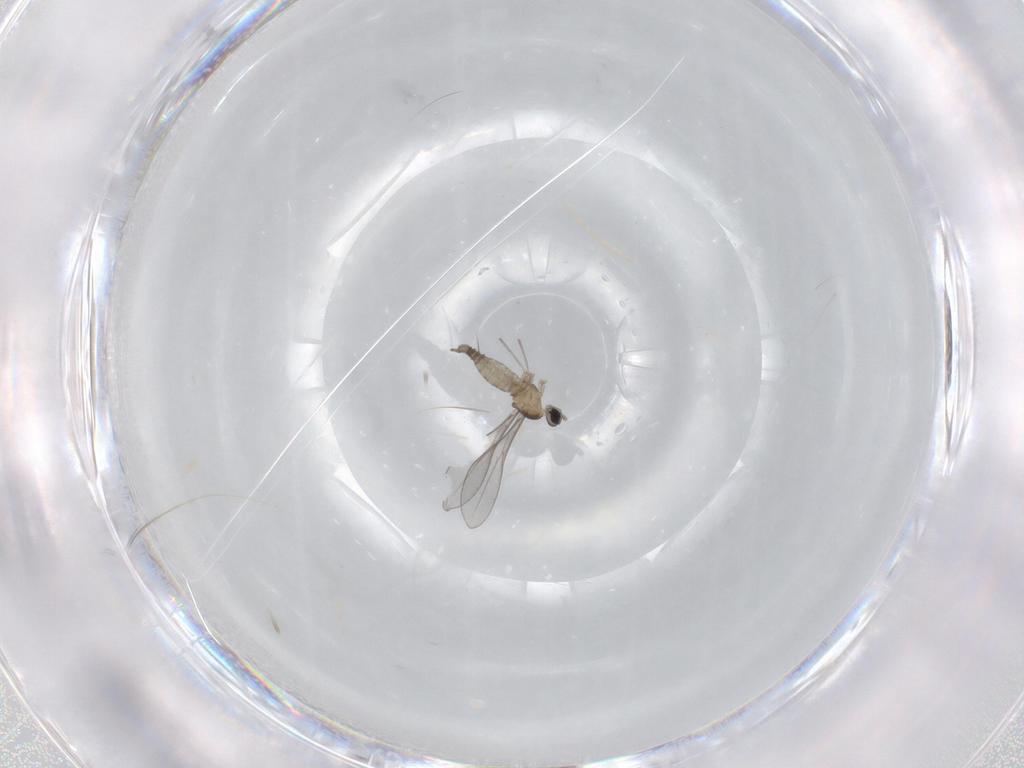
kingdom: Animalia
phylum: Arthropoda
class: Insecta
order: Diptera
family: Cecidomyiidae
